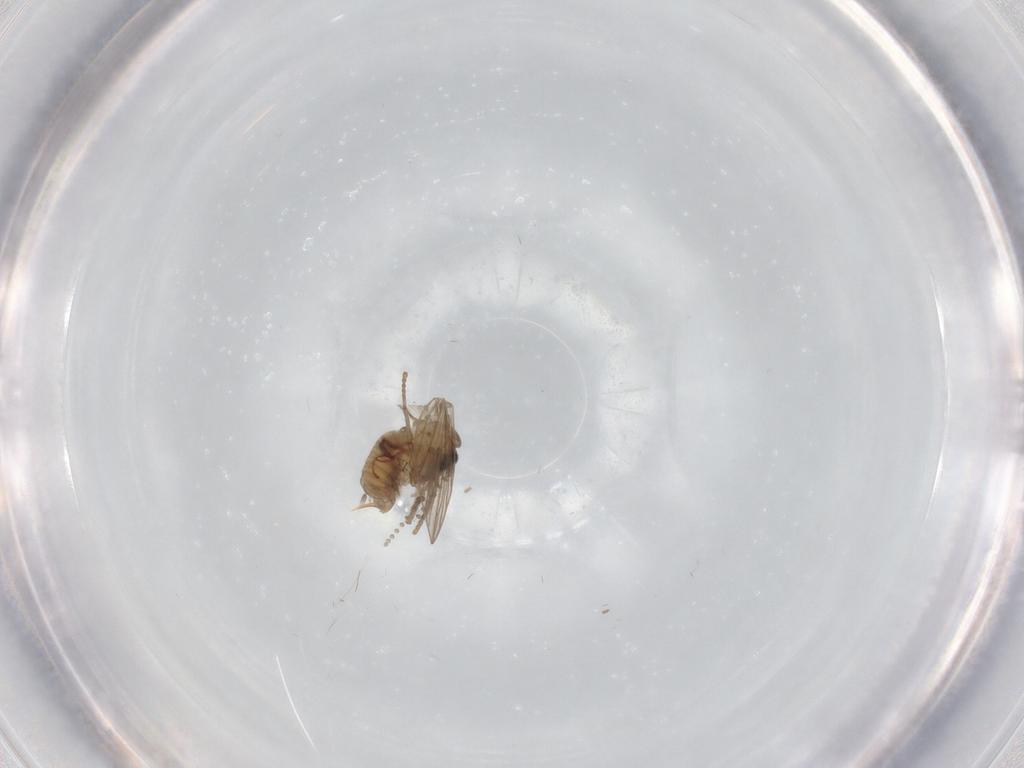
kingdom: Animalia
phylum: Arthropoda
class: Insecta
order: Diptera
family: Psychodidae
